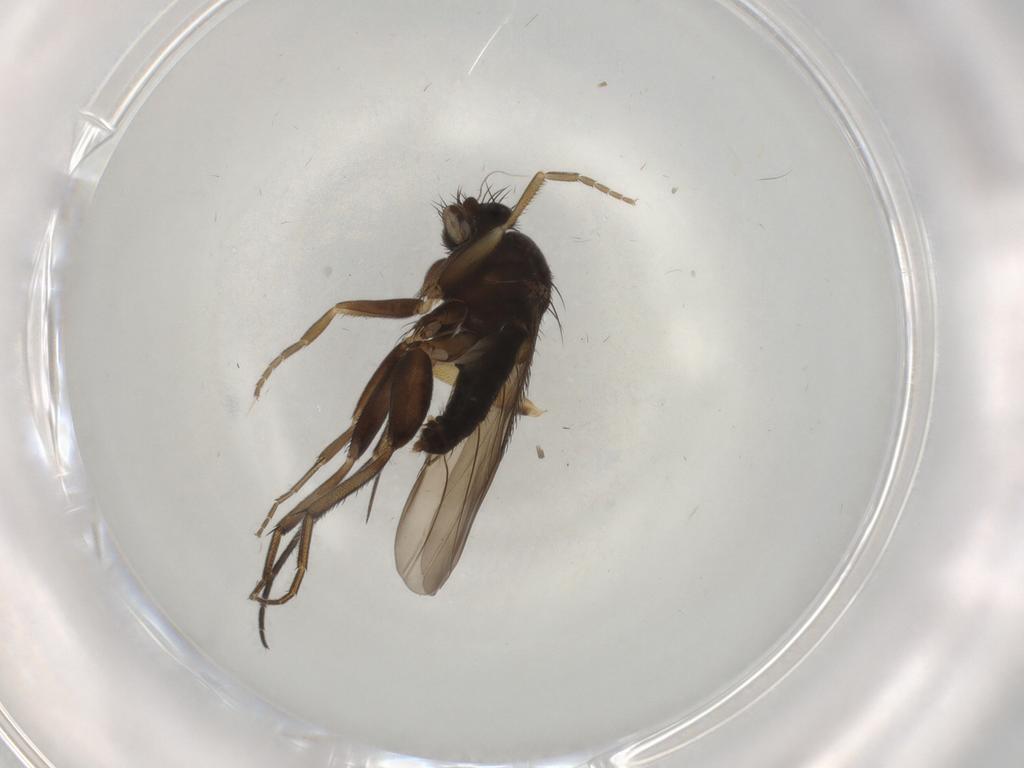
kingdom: Animalia
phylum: Arthropoda
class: Insecta
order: Diptera
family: Phoridae
